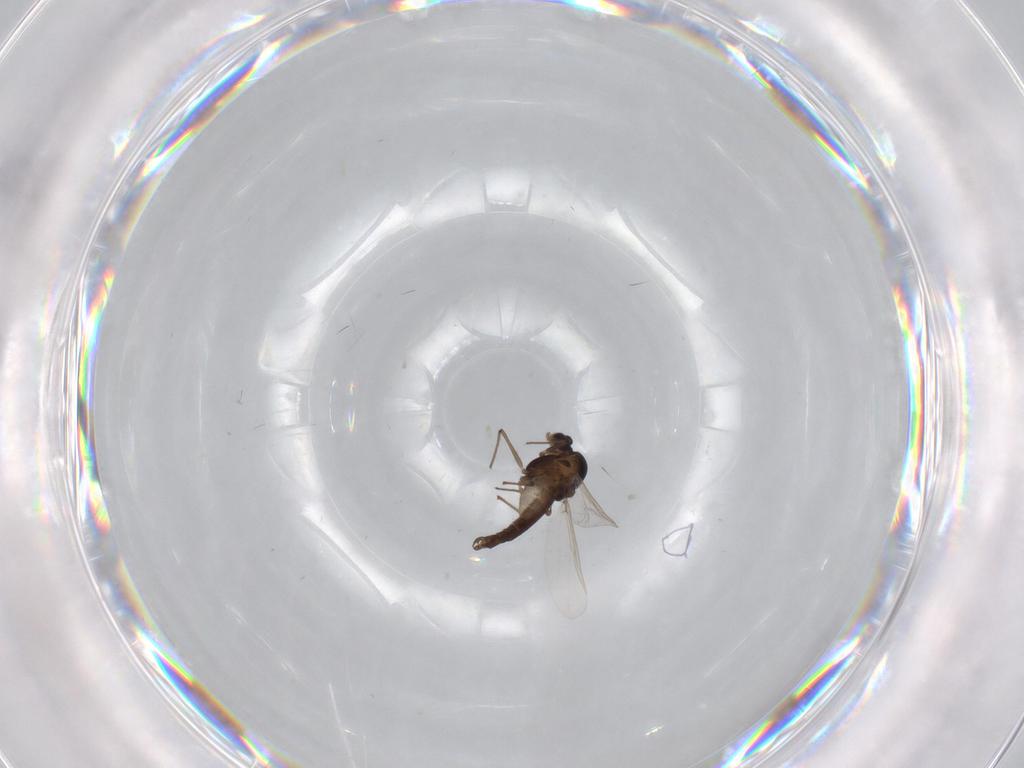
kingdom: Animalia
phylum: Arthropoda
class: Insecta
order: Diptera
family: Chironomidae
